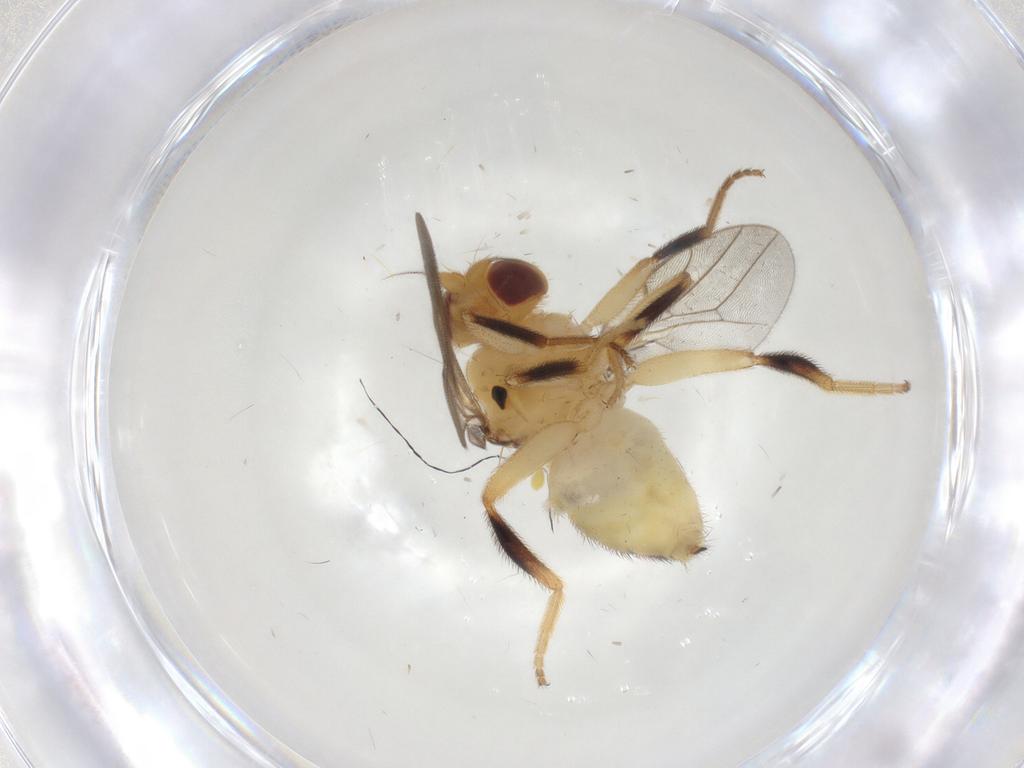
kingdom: Animalia
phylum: Arthropoda
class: Insecta
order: Diptera
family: Chloropidae
